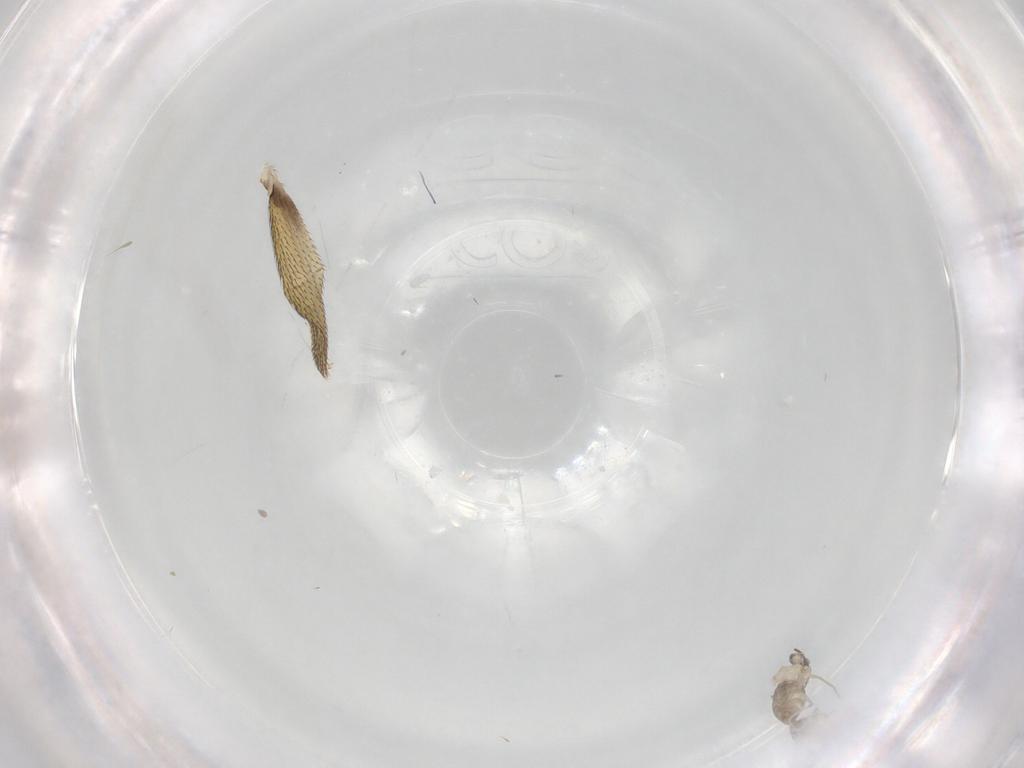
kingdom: Animalia
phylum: Arthropoda
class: Insecta
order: Diptera
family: Dolichopodidae
